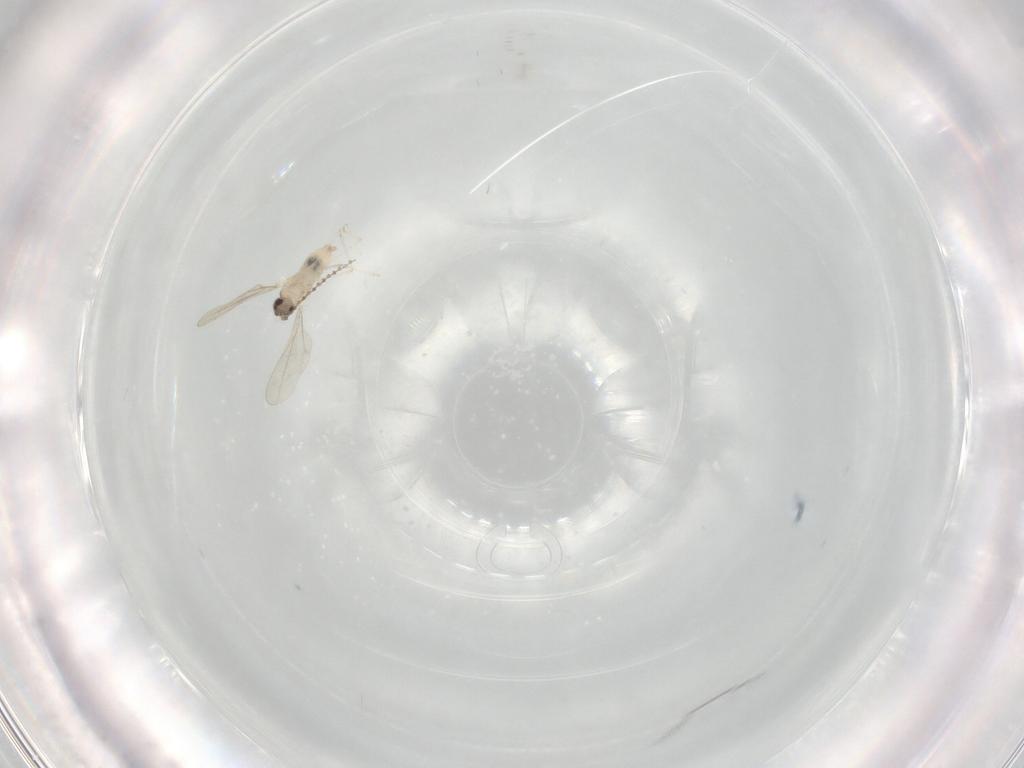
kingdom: Animalia
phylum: Arthropoda
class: Insecta
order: Diptera
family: Cecidomyiidae
